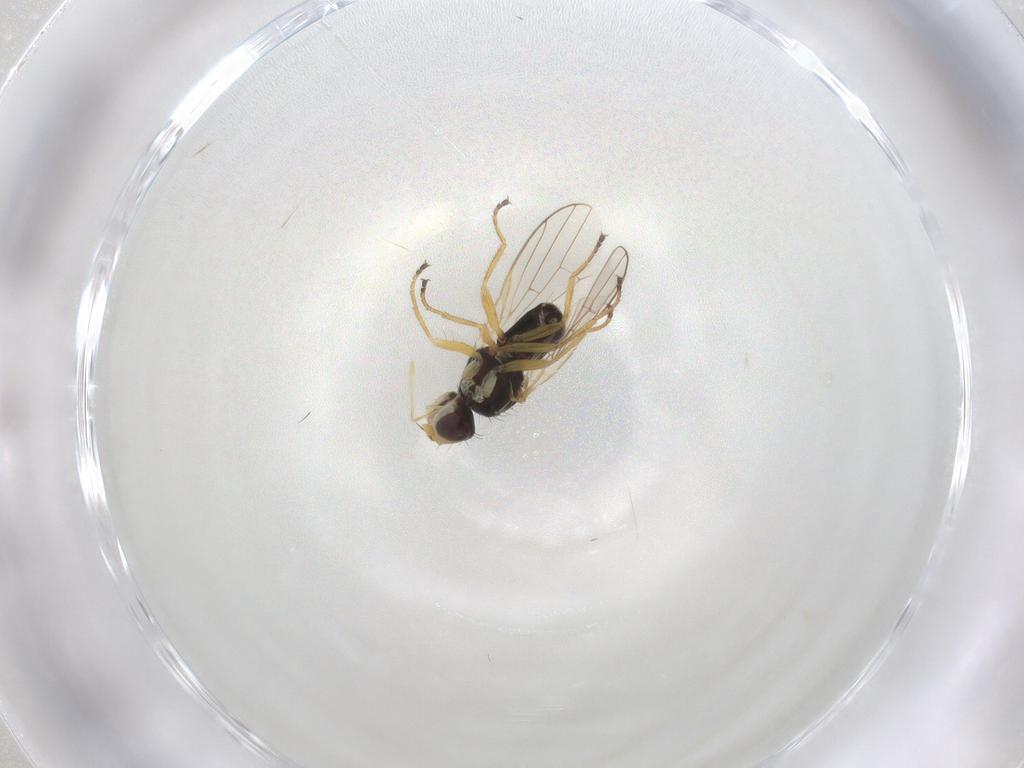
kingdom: Animalia
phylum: Arthropoda
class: Insecta
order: Diptera
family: Tephritidae
